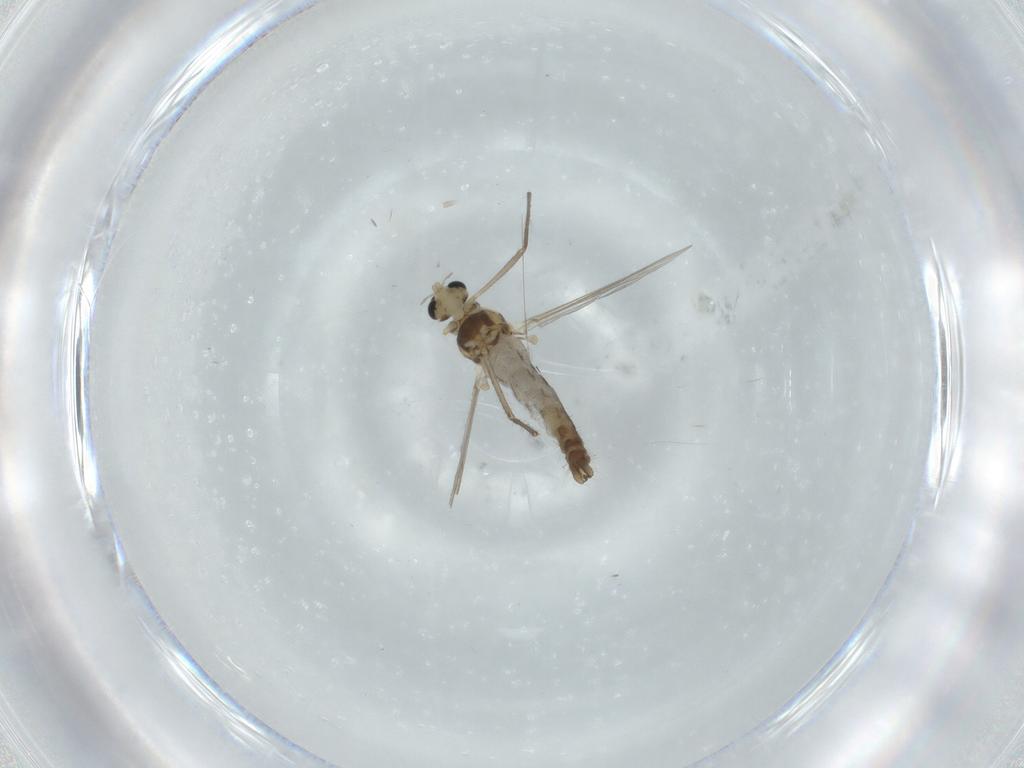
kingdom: Animalia
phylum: Arthropoda
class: Insecta
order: Diptera
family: Chironomidae
